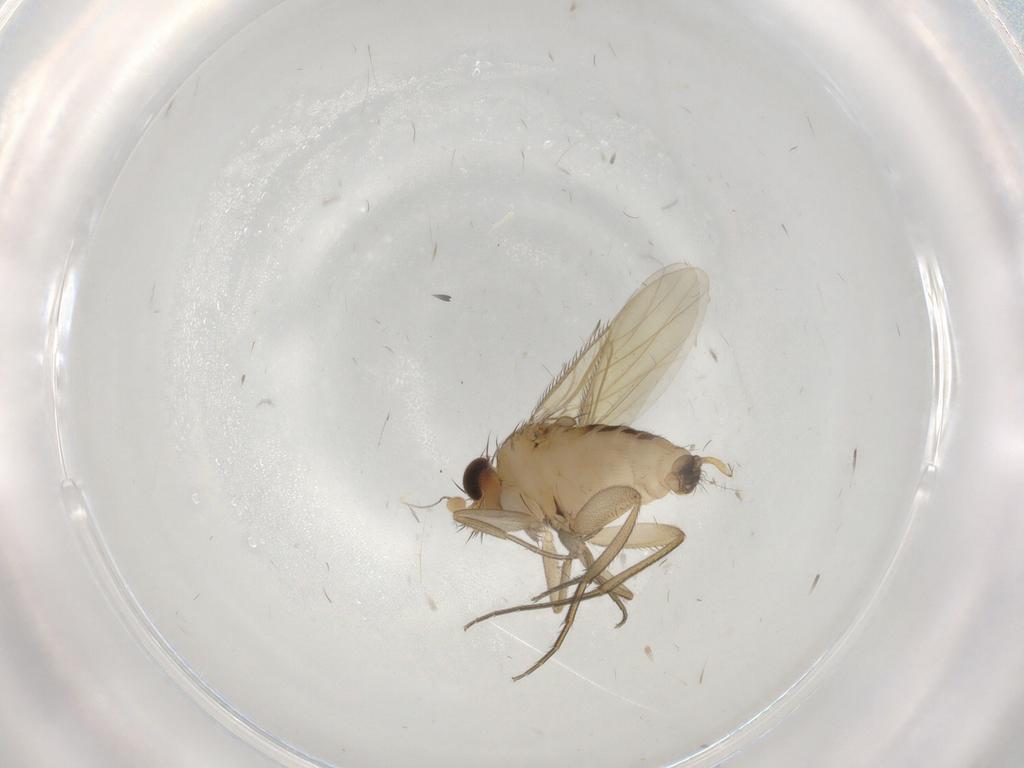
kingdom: Animalia
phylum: Arthropoda
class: Insecta
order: Diptera
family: Phoridae
